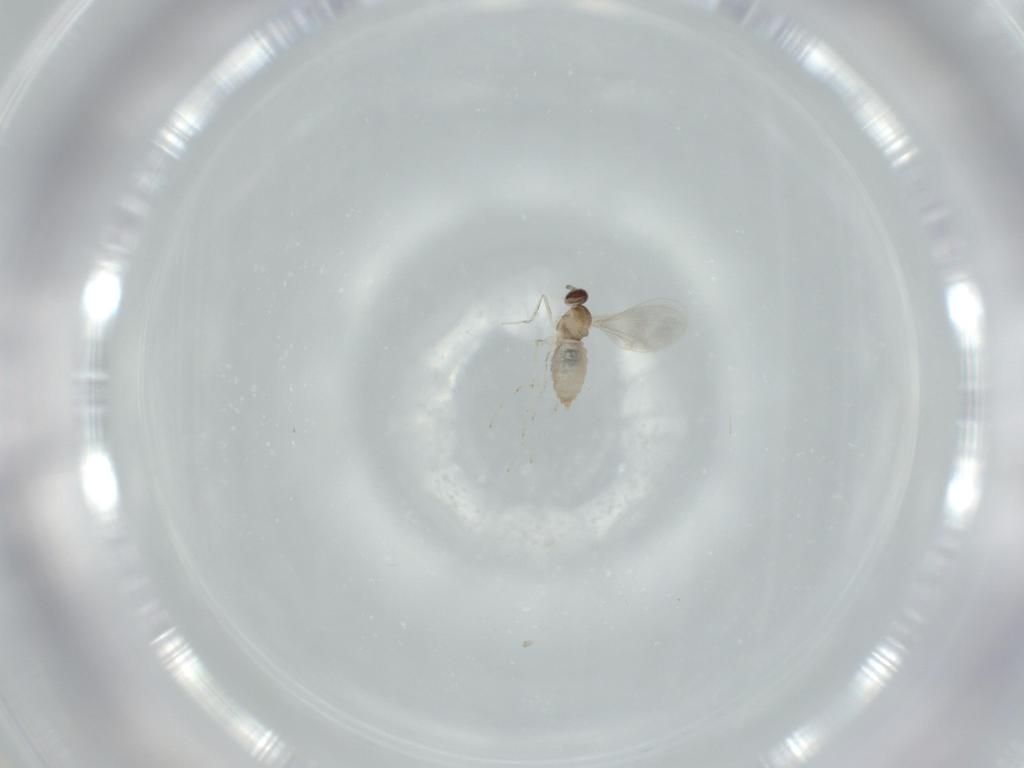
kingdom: Animalia
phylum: Arthropoda
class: Insecta
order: Diptera
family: Cecidomyiidae
